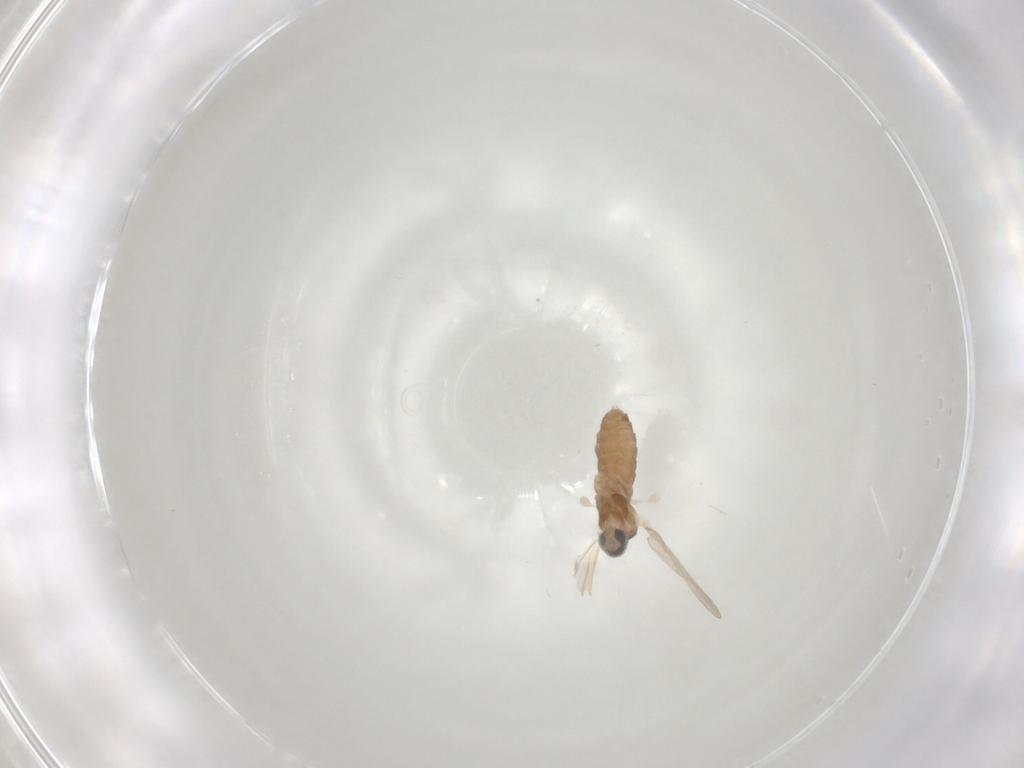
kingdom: Animalia
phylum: Arthropoda
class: Insecta
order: Diptera
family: Cecidomyiidae
